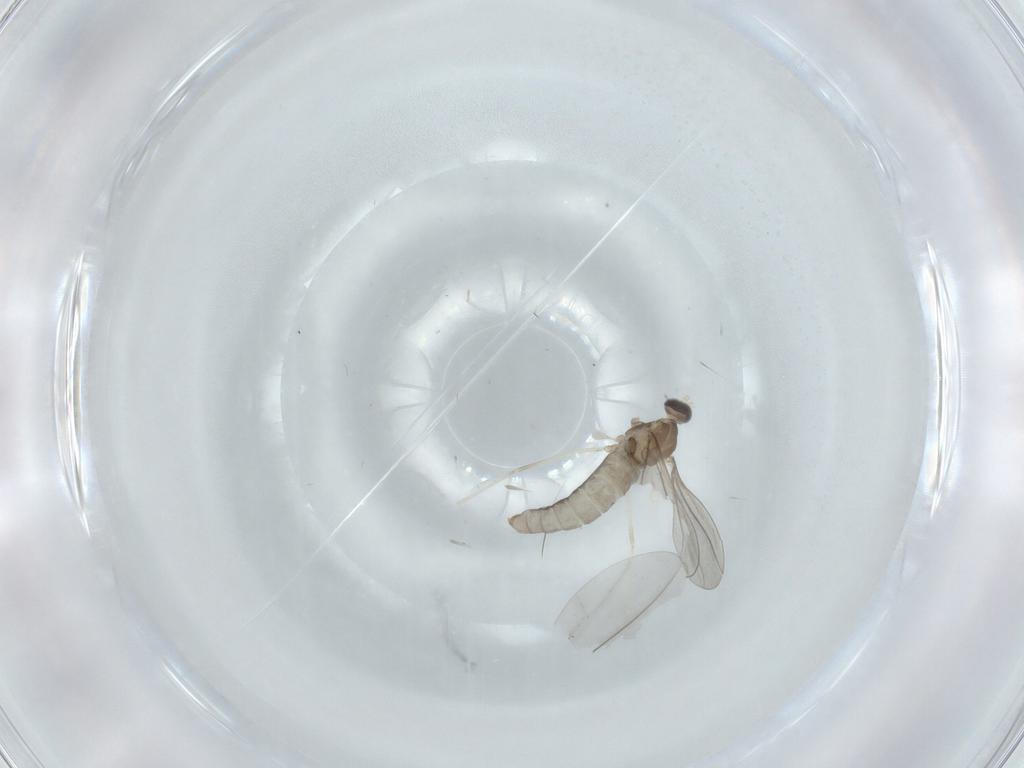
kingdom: Animalia
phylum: Arthropoda
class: Insecta
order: Diptera
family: Cecidomyiidae
